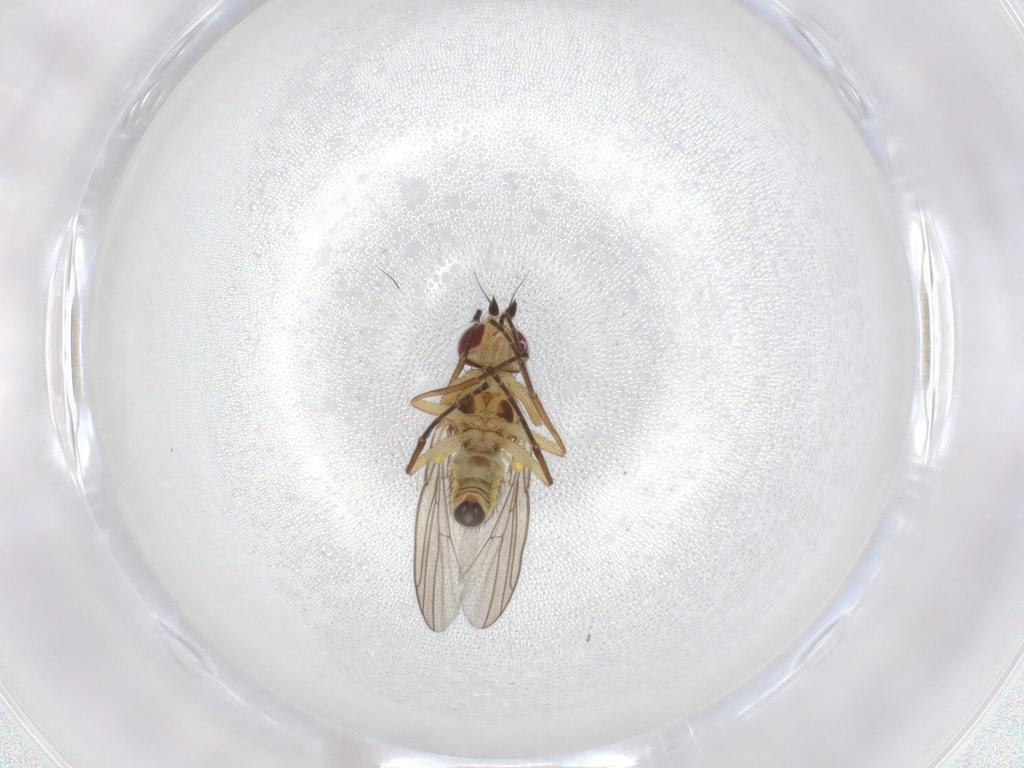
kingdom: Animalia
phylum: Arthropoda
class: Insecta
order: Diptera
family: Agromyzidae
